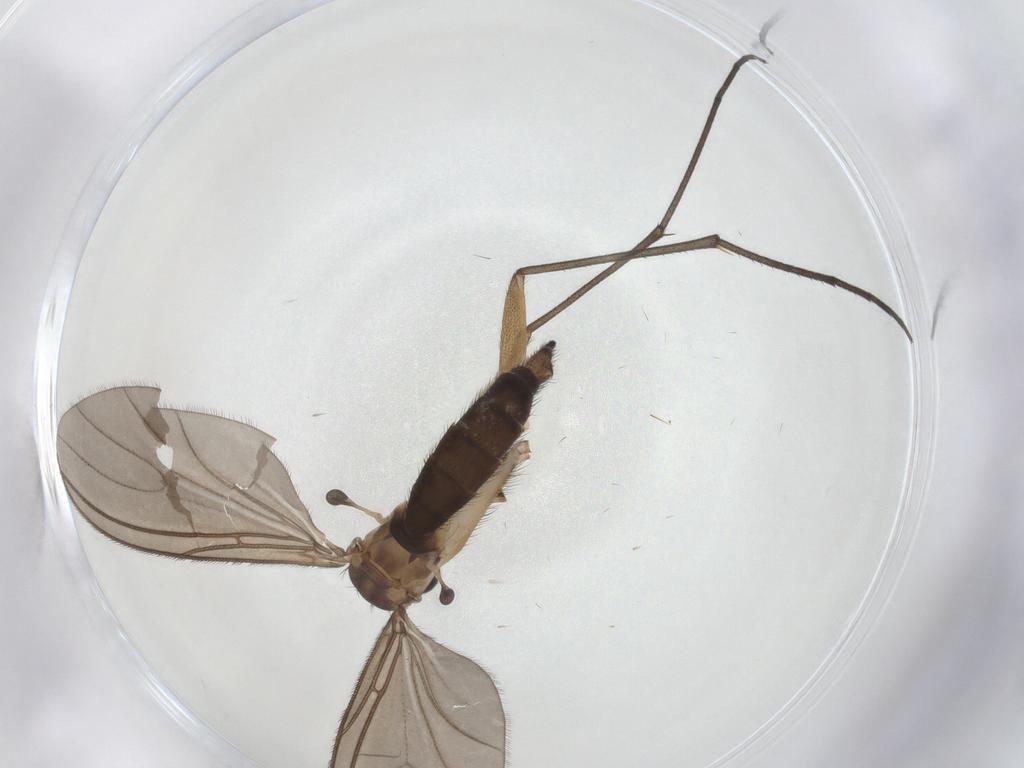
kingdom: Animalia
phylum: Arthropoda
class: Insecta
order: Diptera
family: Sciaridae
